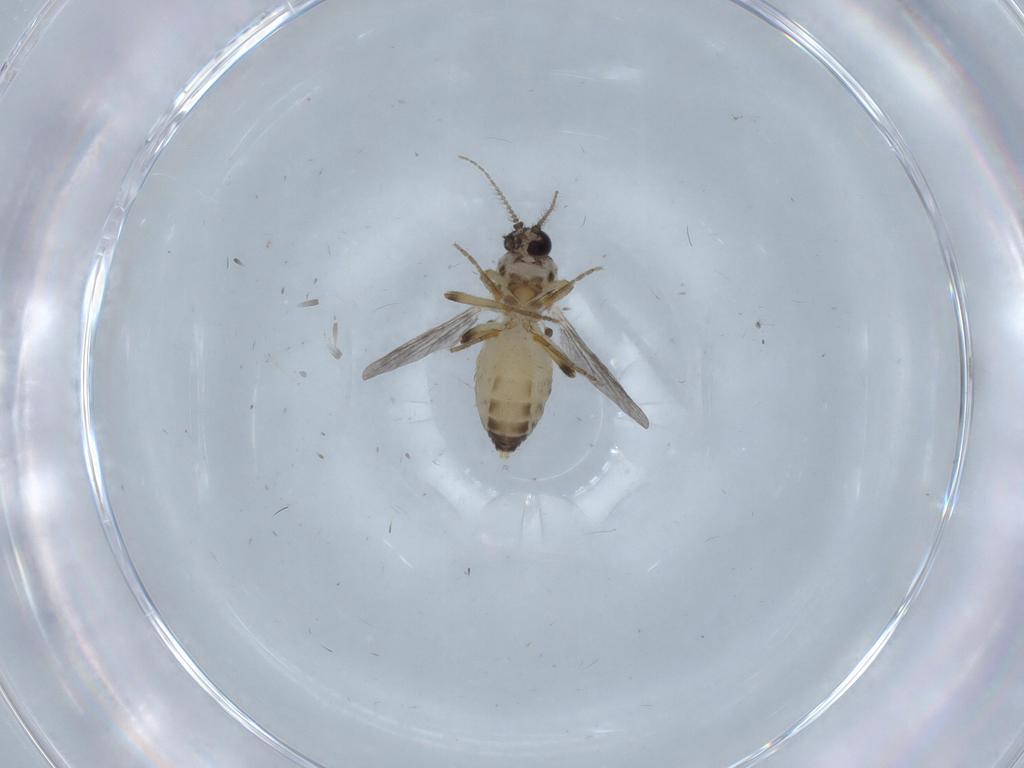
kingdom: Animalia
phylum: Arthropoda
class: Insecta
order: Diptera
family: Ceratopogonidae
